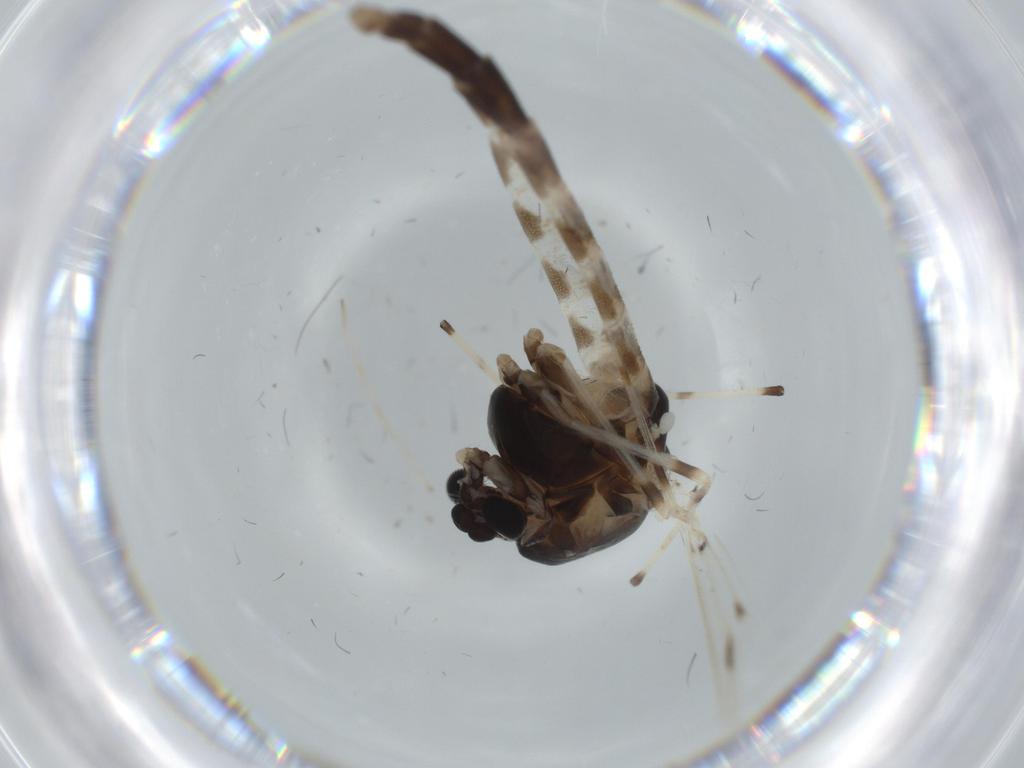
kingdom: Animalia
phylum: Arthropoda
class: Insecta
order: Diptera
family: Chironomidae
